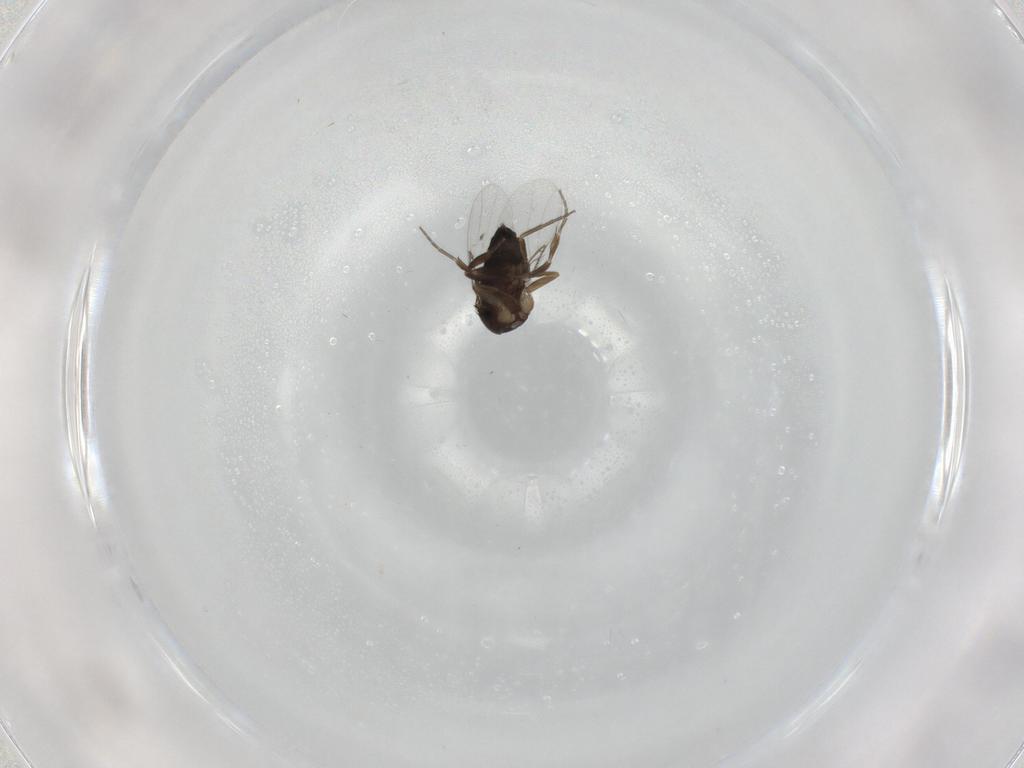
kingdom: Animalia
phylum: Arthropoda
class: Insecta
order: Diptera
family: Phoridae
